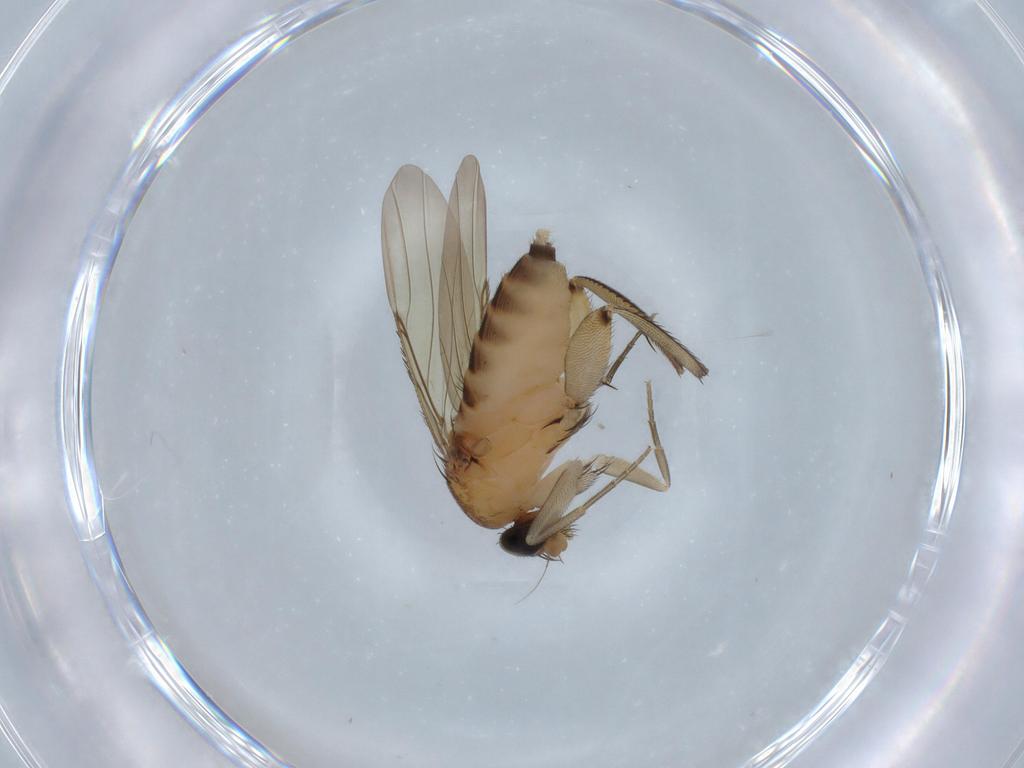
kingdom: Animalia
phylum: Arthropoda
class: Insecta
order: Diptera
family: Phoridae
